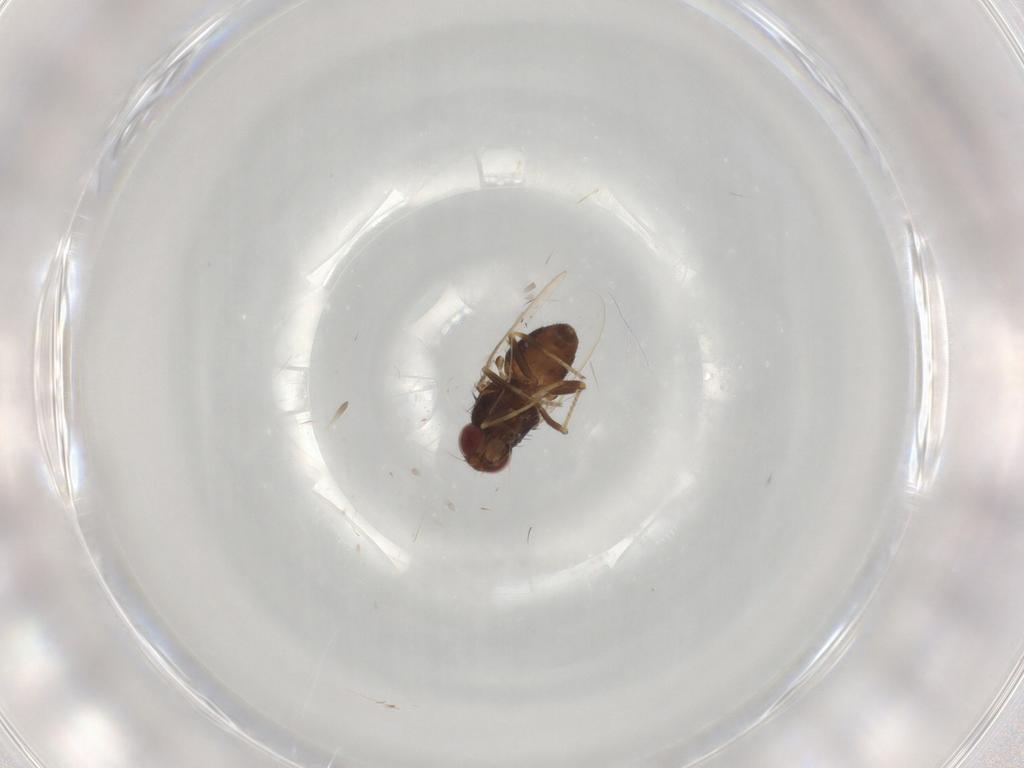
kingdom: Animalia
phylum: Arthropoda
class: Insecta
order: Diptera
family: Chloropidae
